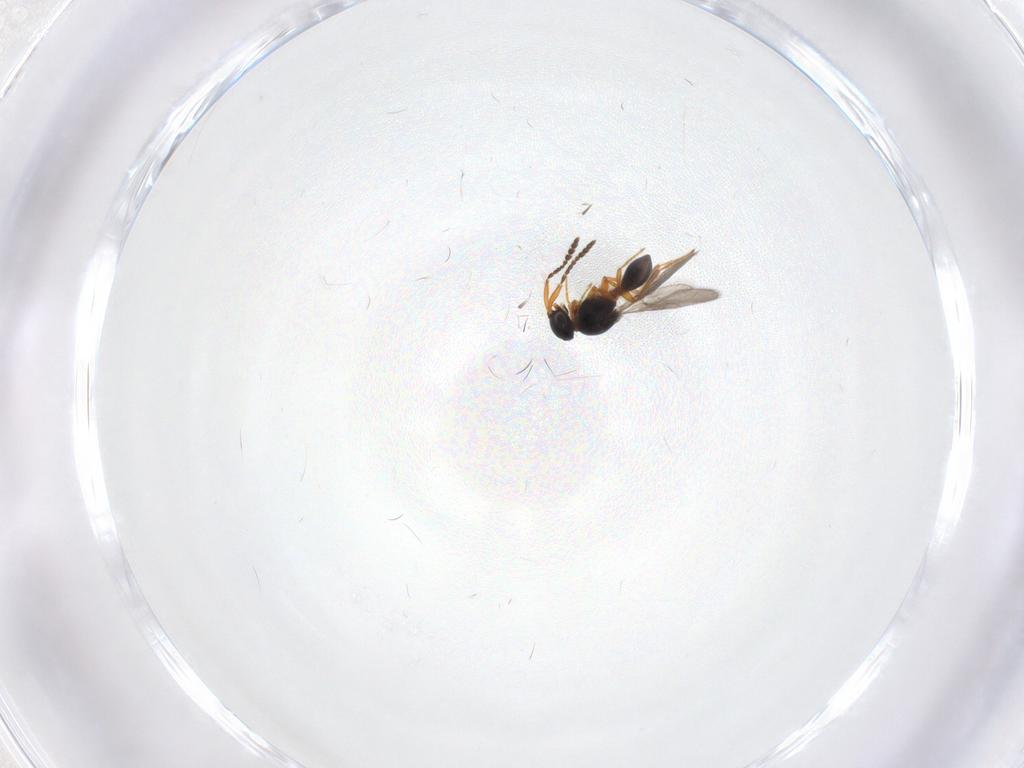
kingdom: Animalia
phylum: Arthropoda
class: Insecta
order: Hymenoptera
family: Platygastridae
